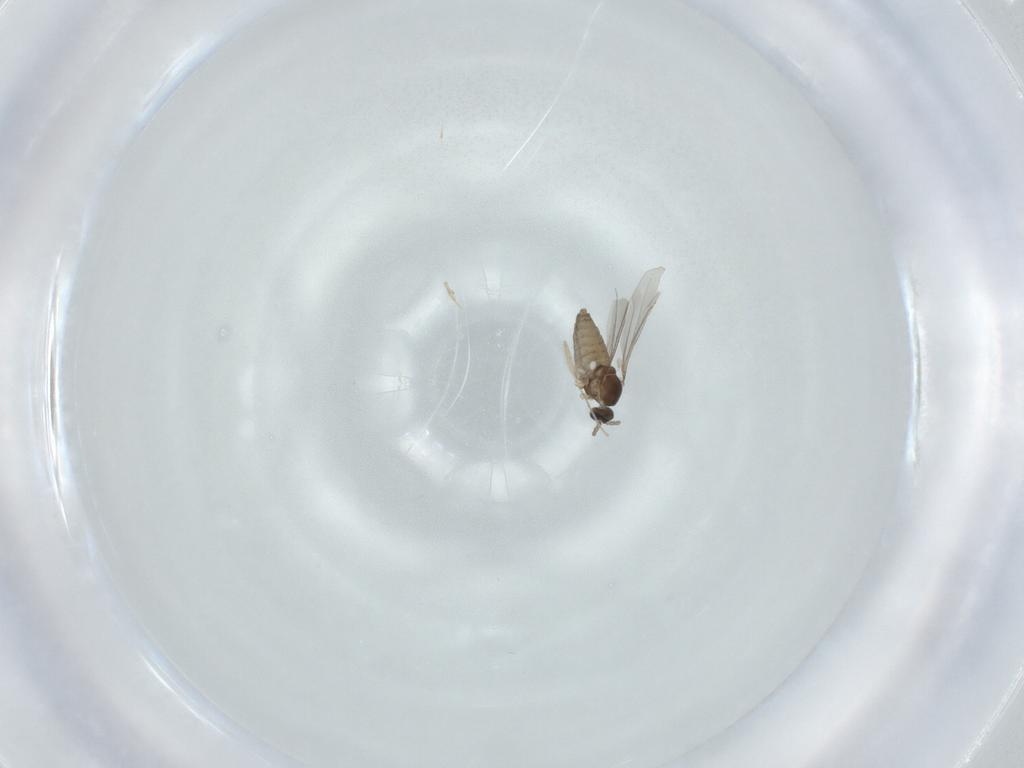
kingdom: Animalia
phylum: Arthropoda
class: Insecta
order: Diptera
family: Cecidomyiidae
